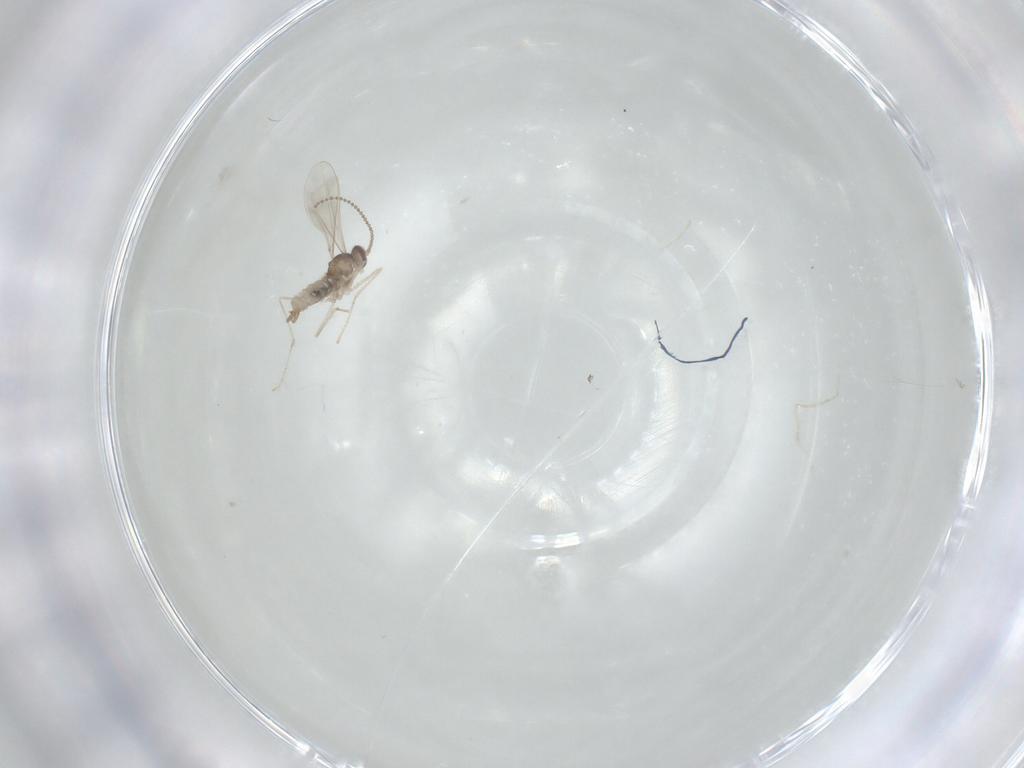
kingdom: Animalia
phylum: Arthropoda
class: Insecta
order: Diptera
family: Cecidomyiidae
